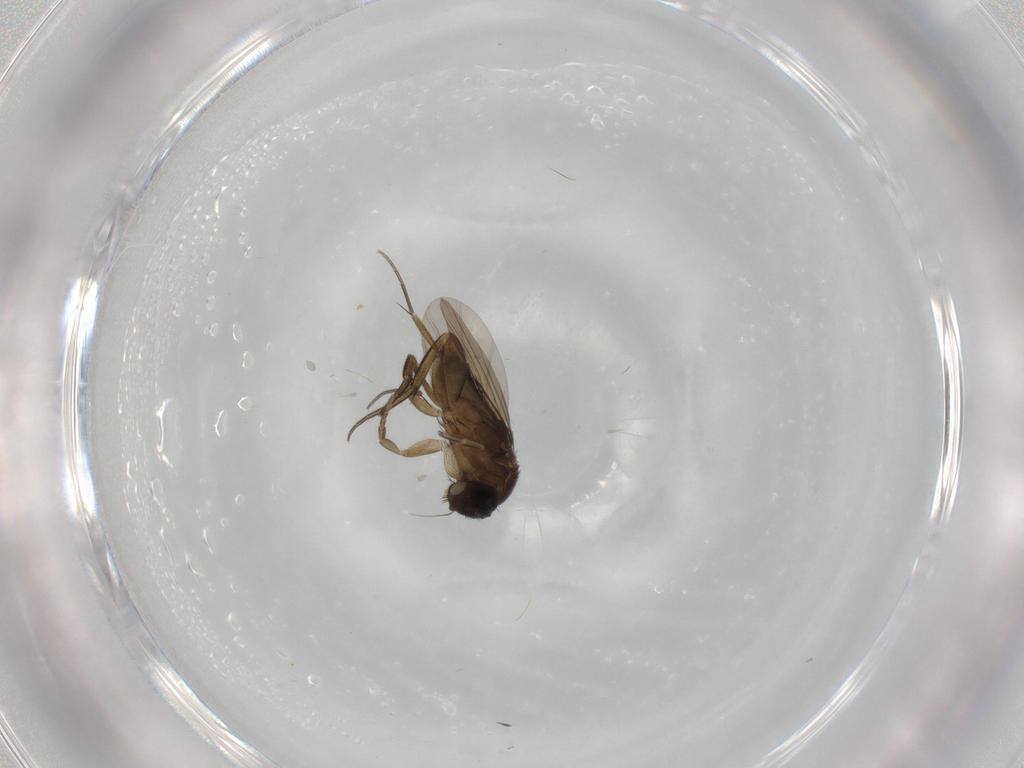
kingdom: Animalia
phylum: Arthropoda
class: Insecta
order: Diptera
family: Phoridae
